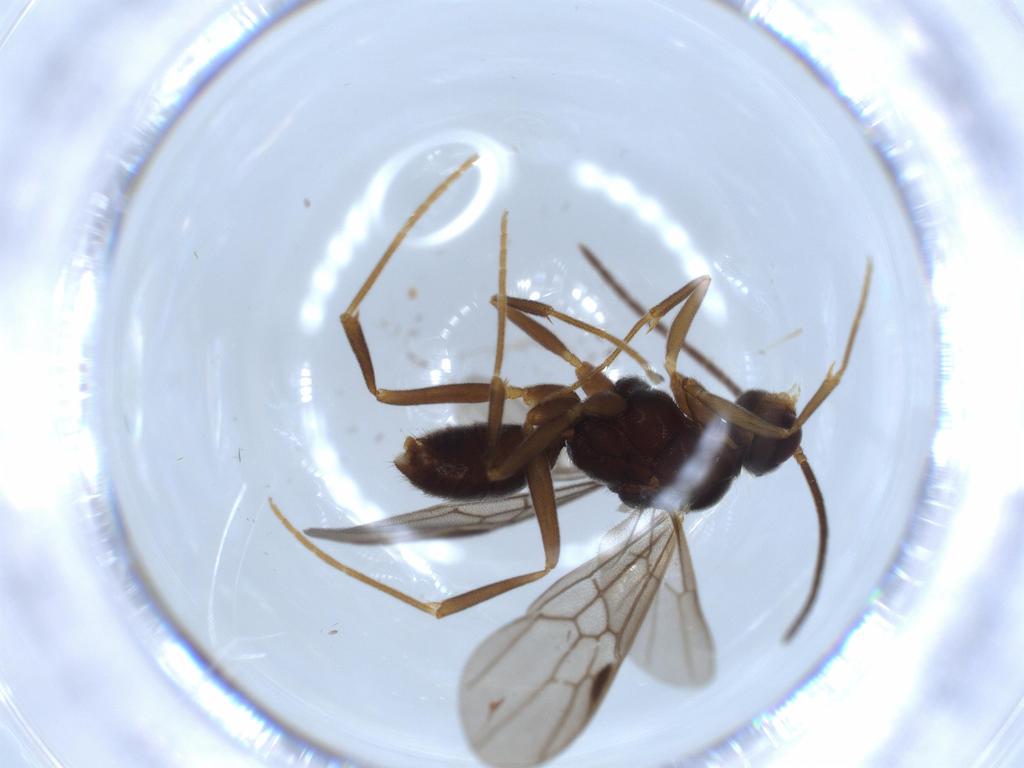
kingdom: Animalia
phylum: Arthropoda
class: Insecta
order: Hymenoptera
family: Formicidae
